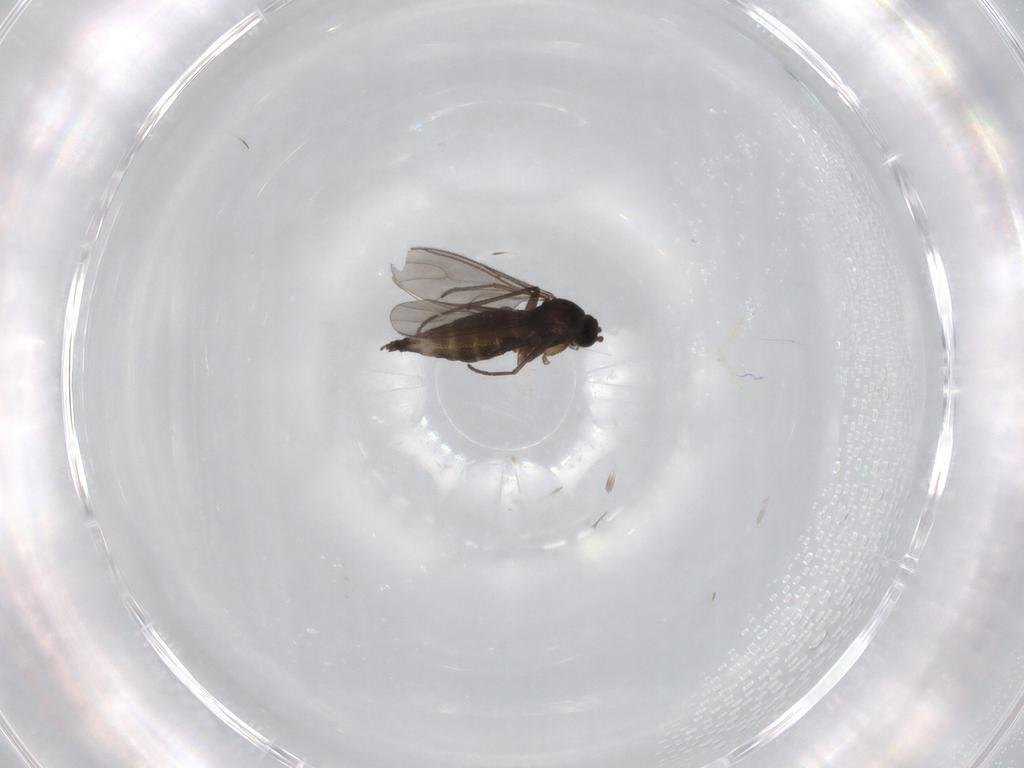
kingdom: Animalia
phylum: Arthropoda
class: Insecta
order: Diptera
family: Sciaridae
